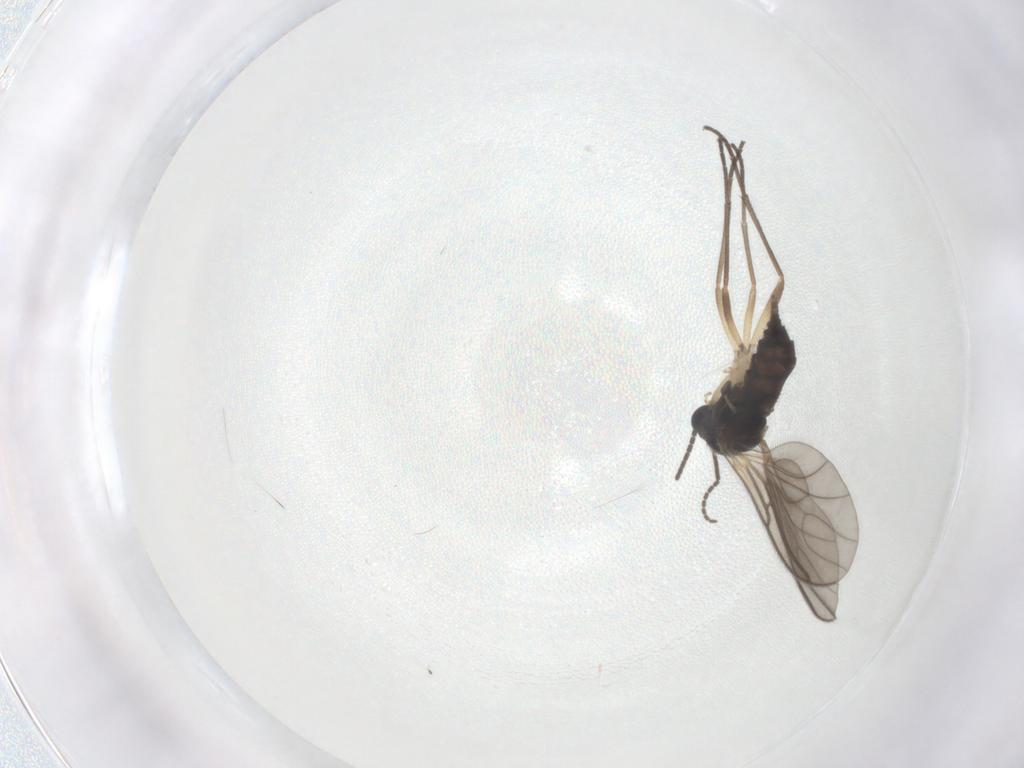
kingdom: Animalia
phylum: Arthropoda
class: Insecta
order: Diptera
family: Sciaridae
